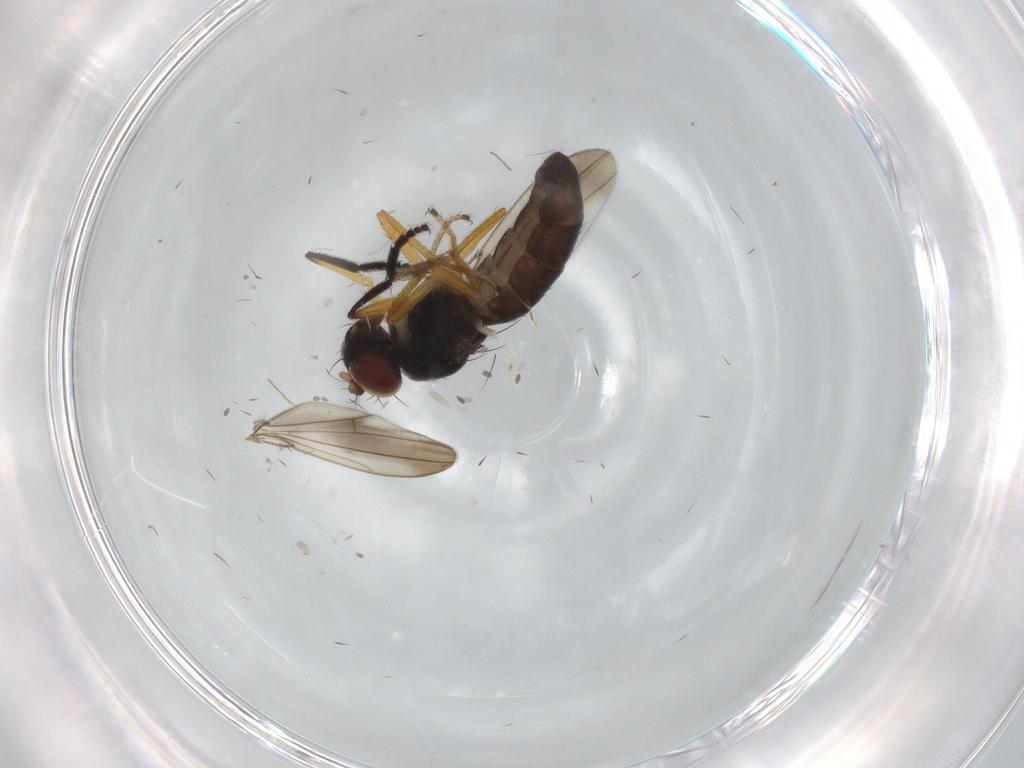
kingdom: Animalia
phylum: Arthropoda
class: Insecta
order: Diptera
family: Ephydridae
